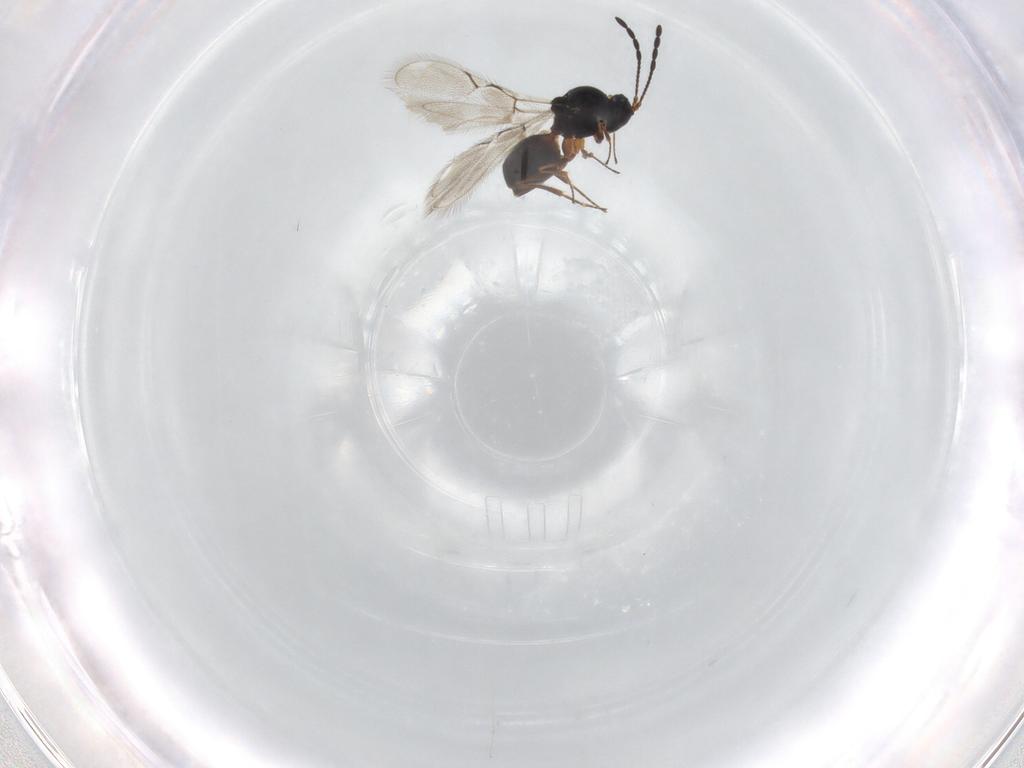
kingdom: Animalia
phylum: Arthropoda
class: Insecta
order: Hymenoptera
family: Figitidae
